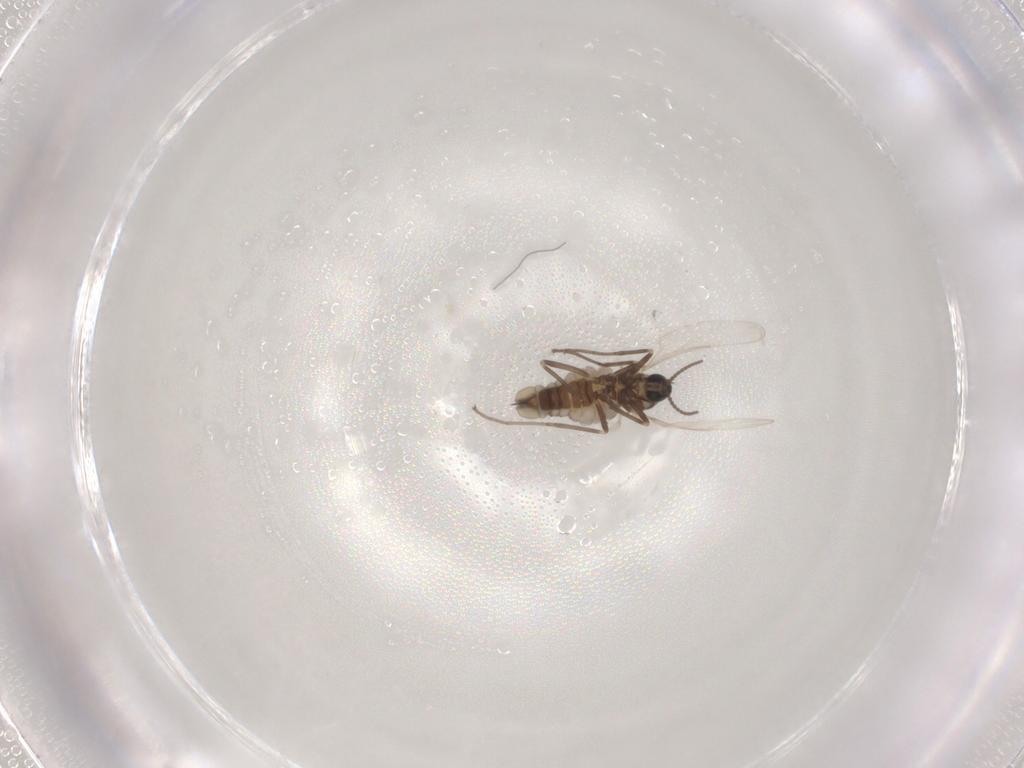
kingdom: Animalia
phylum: Arthropoda
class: Insecta
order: Diptera
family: Cecidomyiidae
